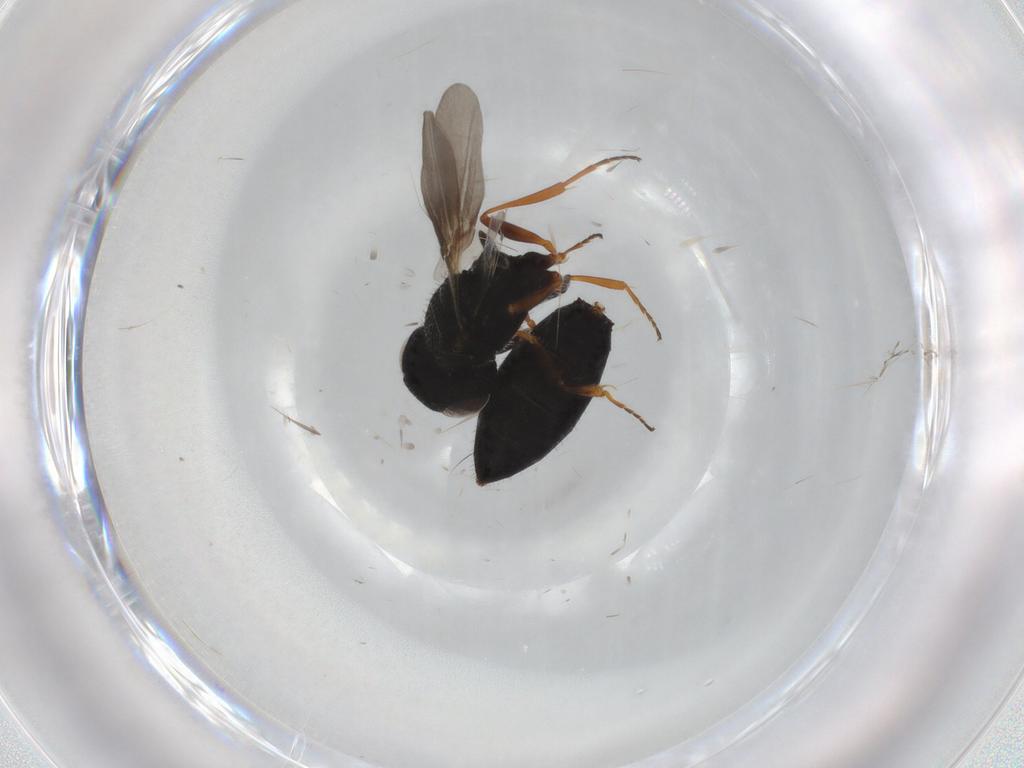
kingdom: Animalia
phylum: Arthropoda
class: Insecta
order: Hymenoptera
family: Scelionidae
